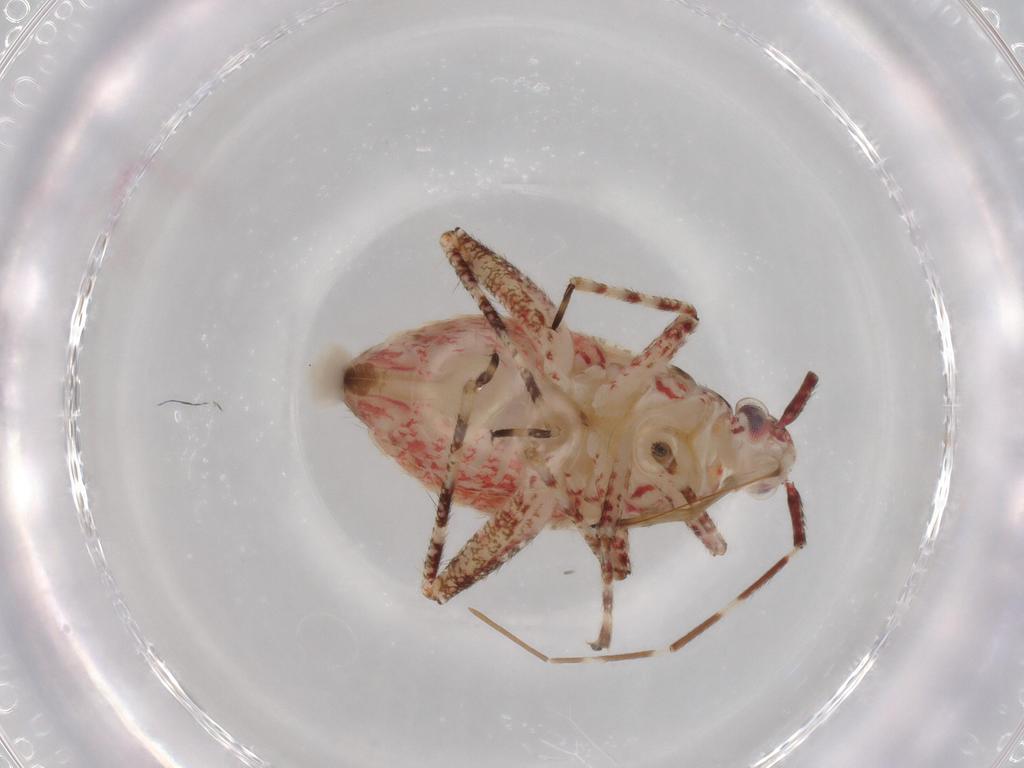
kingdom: Animalia
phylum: Arthropoda
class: Insecta
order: Hemiptera
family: Miridae
